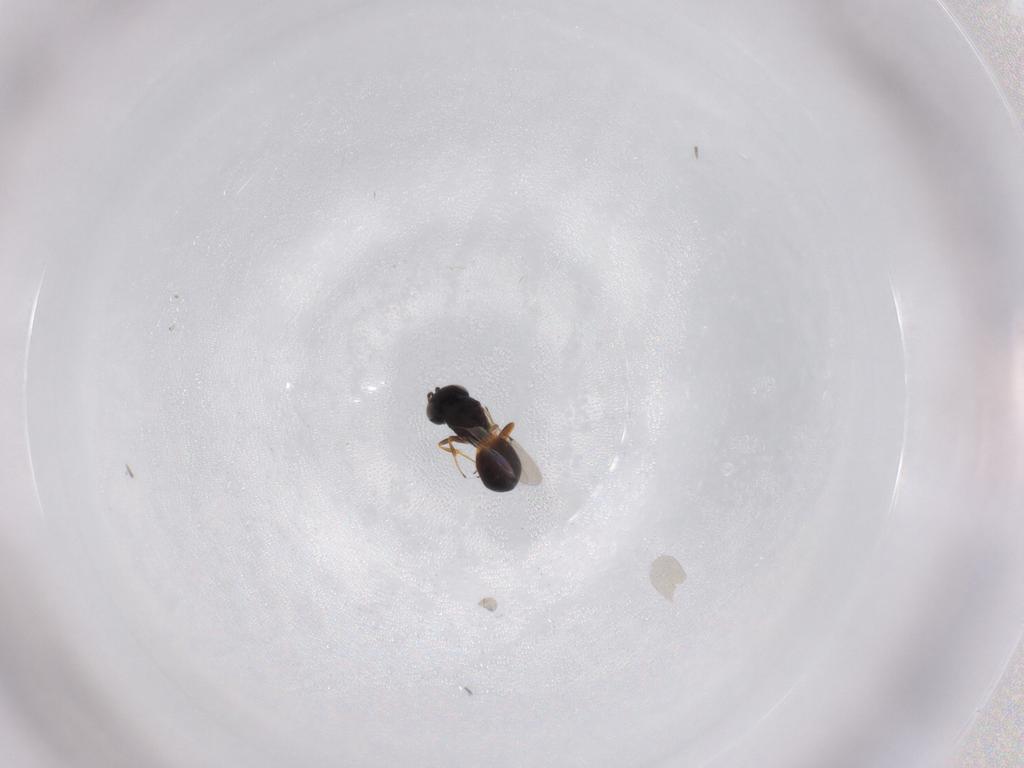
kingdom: Animalia
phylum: Arthropoda
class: Insecta
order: Hymenoptera
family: Scelionidae
